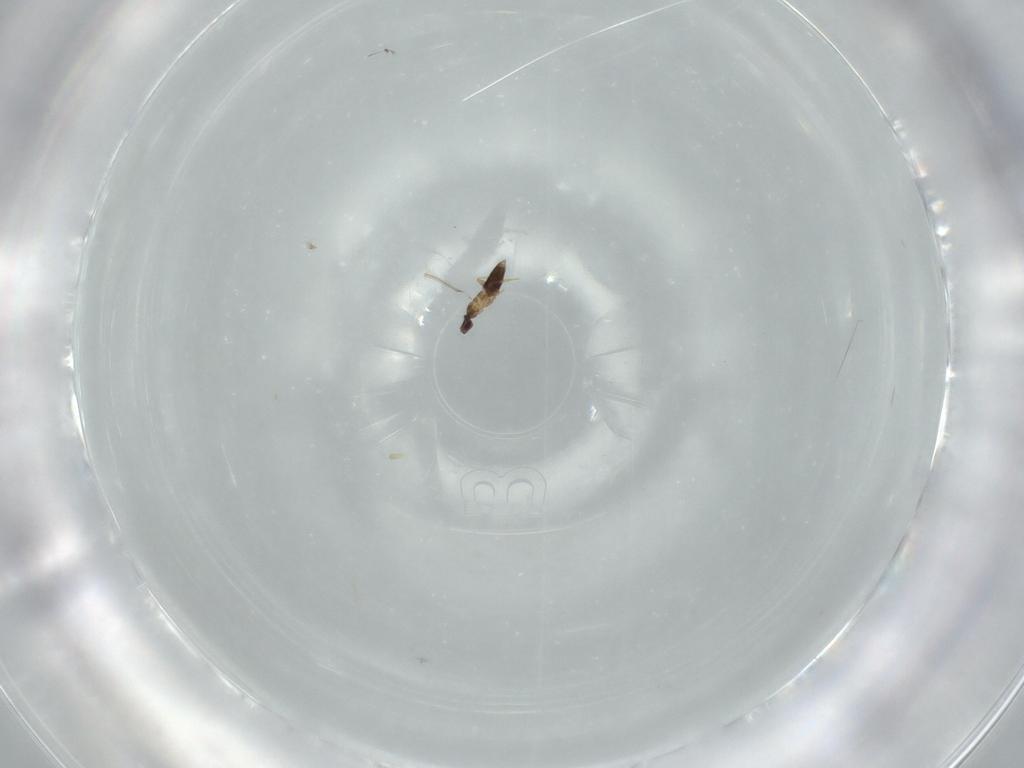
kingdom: Animalia
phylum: Arthropoda
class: Insecta
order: Hymenoptera
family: Mymaridae
